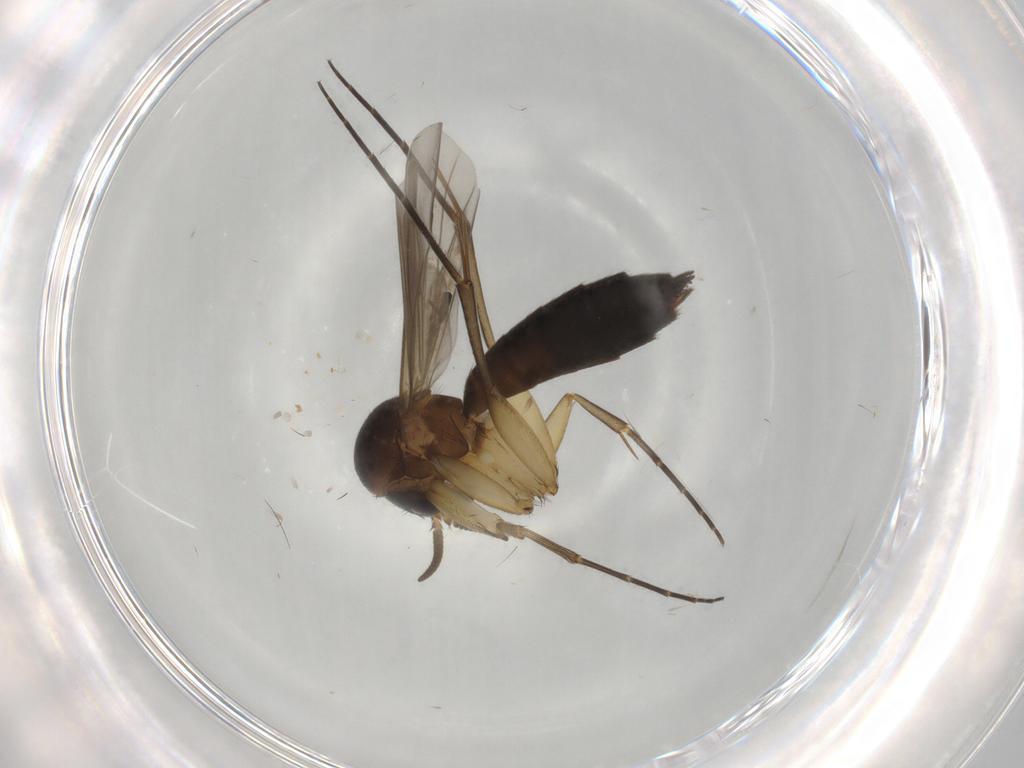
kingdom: Animalia
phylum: Arthropoda
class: Insecta
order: Diptera
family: Mycetophilidae
